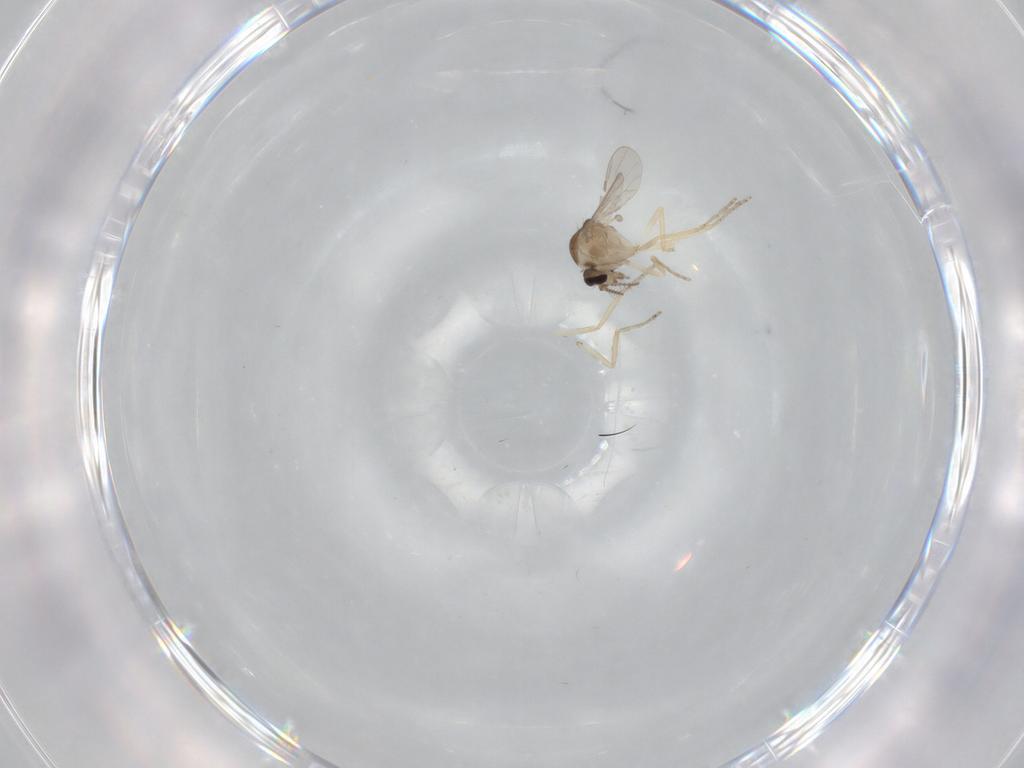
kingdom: Animalia
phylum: Arthropoda
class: Insecta
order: Diptera
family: Ceratopogonidae
